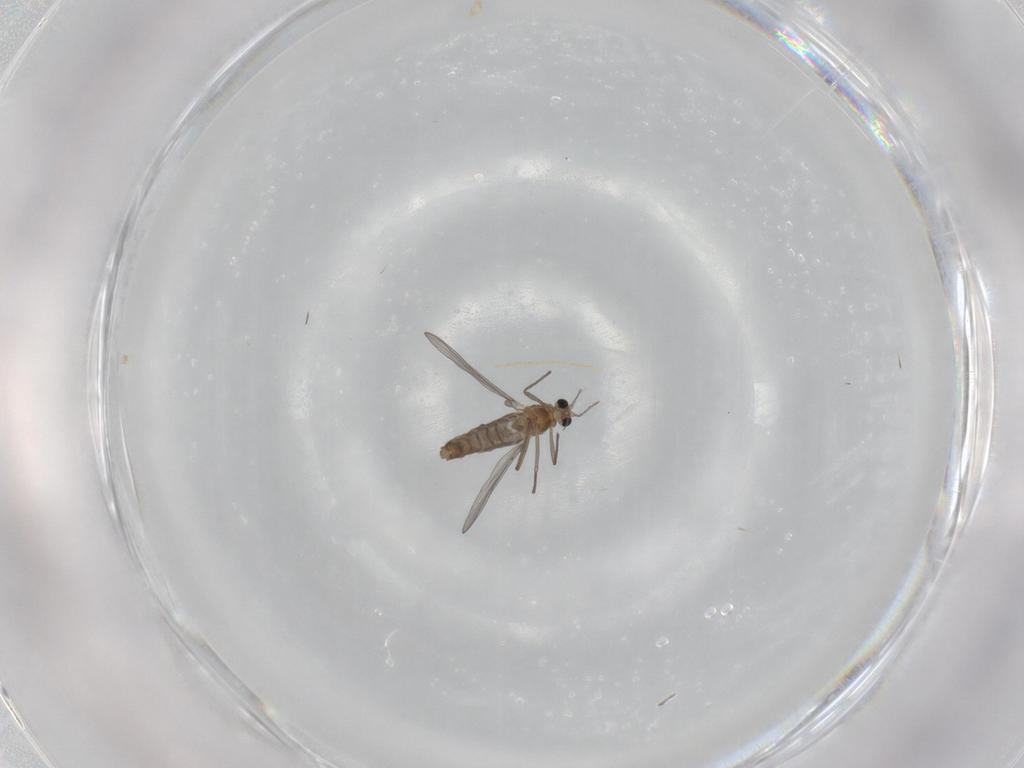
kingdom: Animalia
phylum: Arthropoda
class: Insecta
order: Diptera
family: Chironomidae
